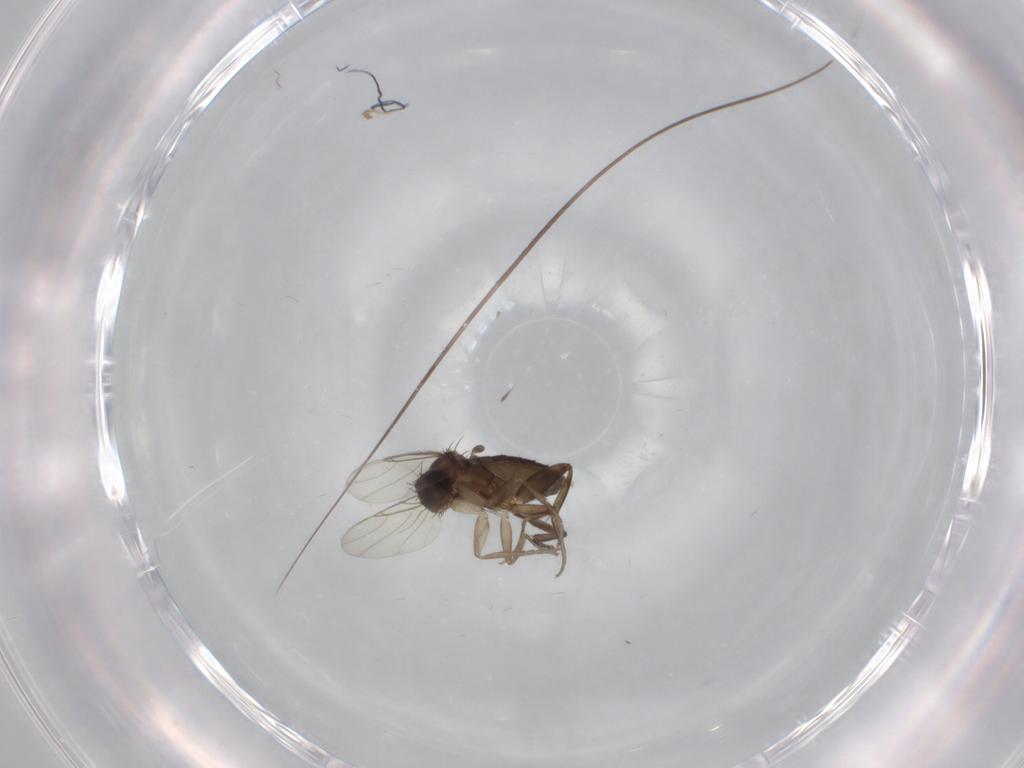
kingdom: Animalia
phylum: Arthropoda
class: Insecta
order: Diptera
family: Phoridae
